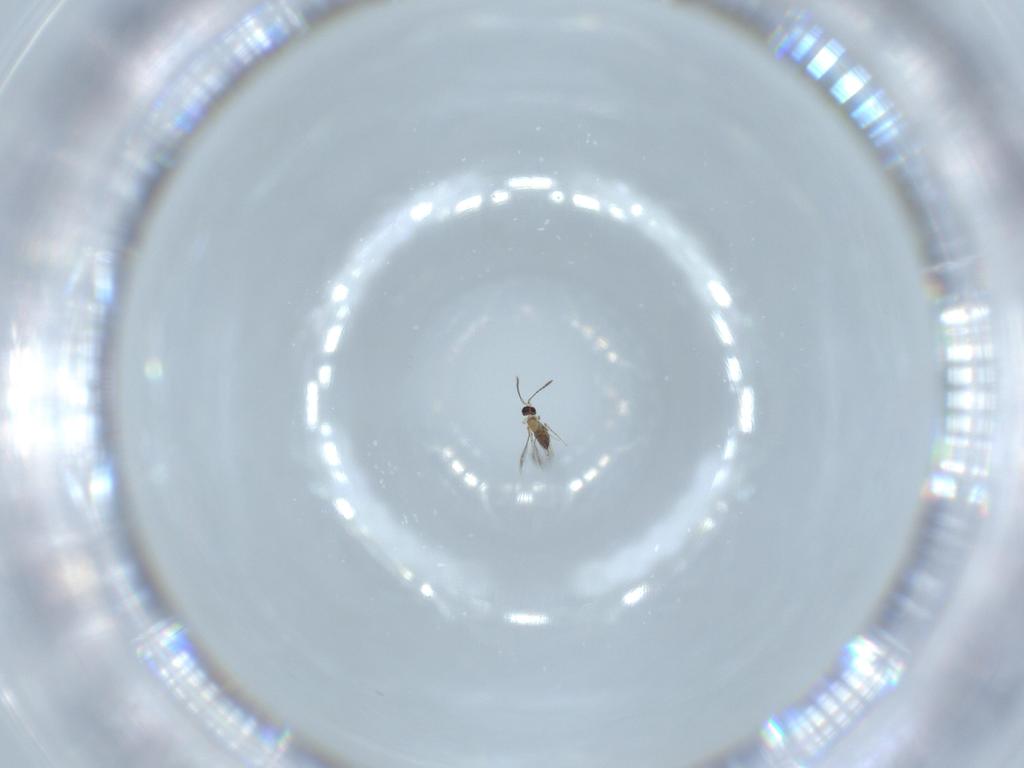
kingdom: Animalia
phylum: Arthropoda
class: Insecta
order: Hymenoptera
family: Mymaridae
